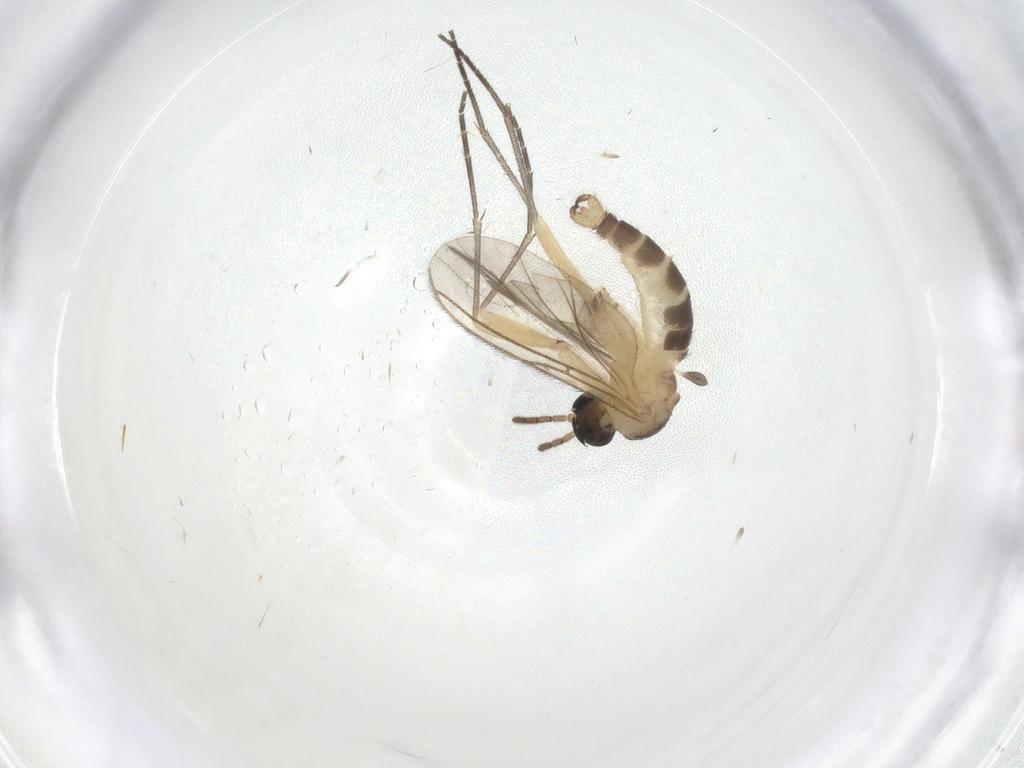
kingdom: Animalia
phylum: Arthropoda
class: Insecta
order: Diptera
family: Sciaridae
